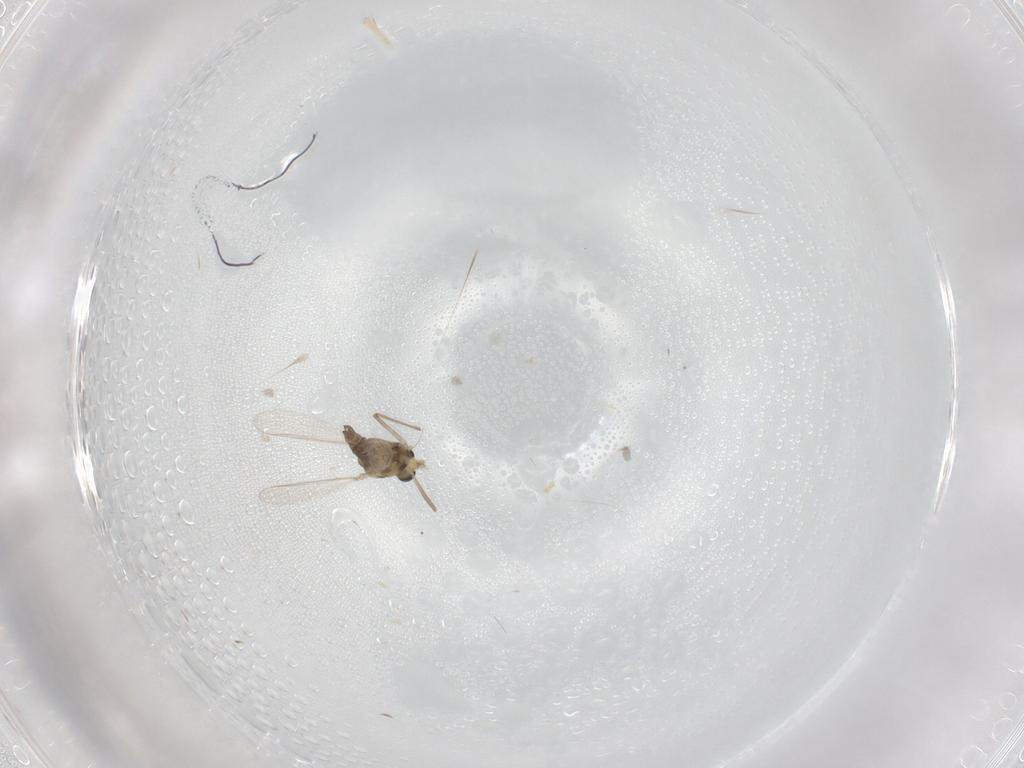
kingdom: Animalia
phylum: Arthropoda
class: Insecta
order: Diptera
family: Chironomidae
